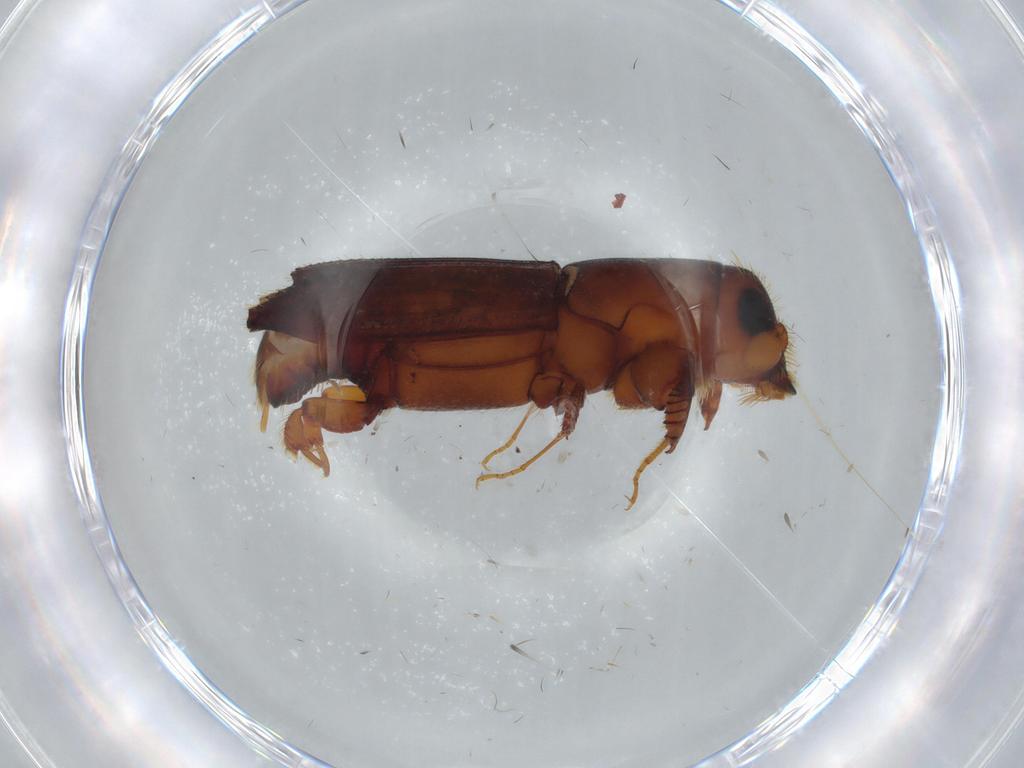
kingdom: Animalia
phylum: Arthropoda
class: Insecta
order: Coleoptera
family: Curculionidae
